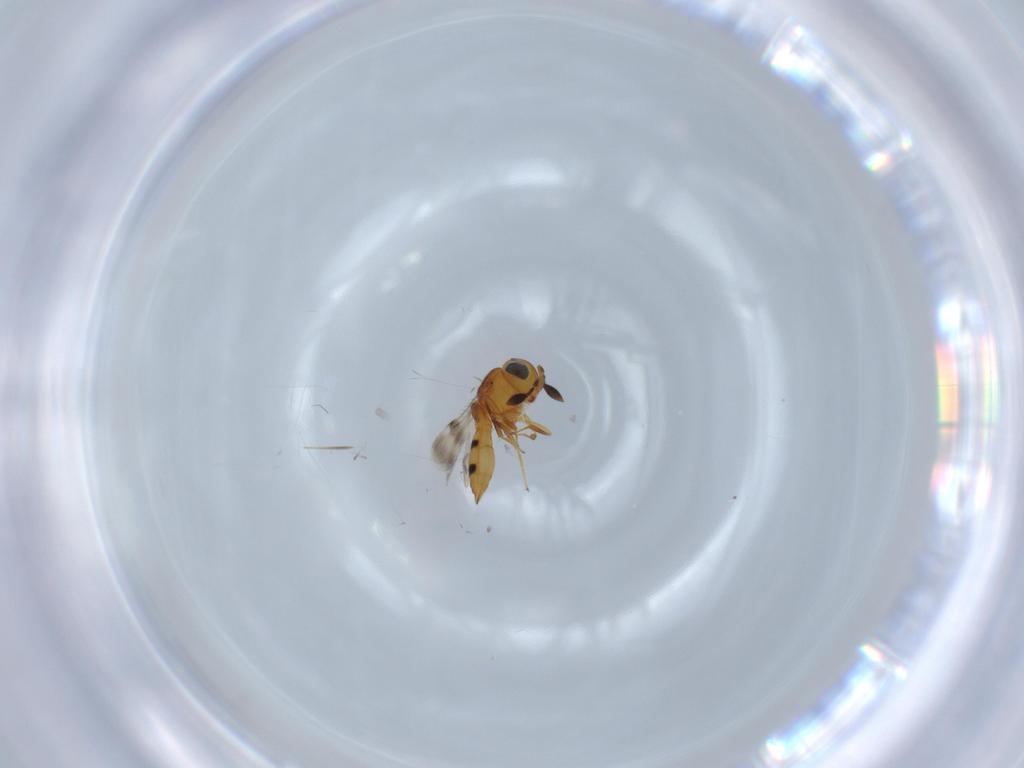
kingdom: Animalia
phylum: Arthropoda
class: Insecta
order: Hymenoptera
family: Scelionidae
